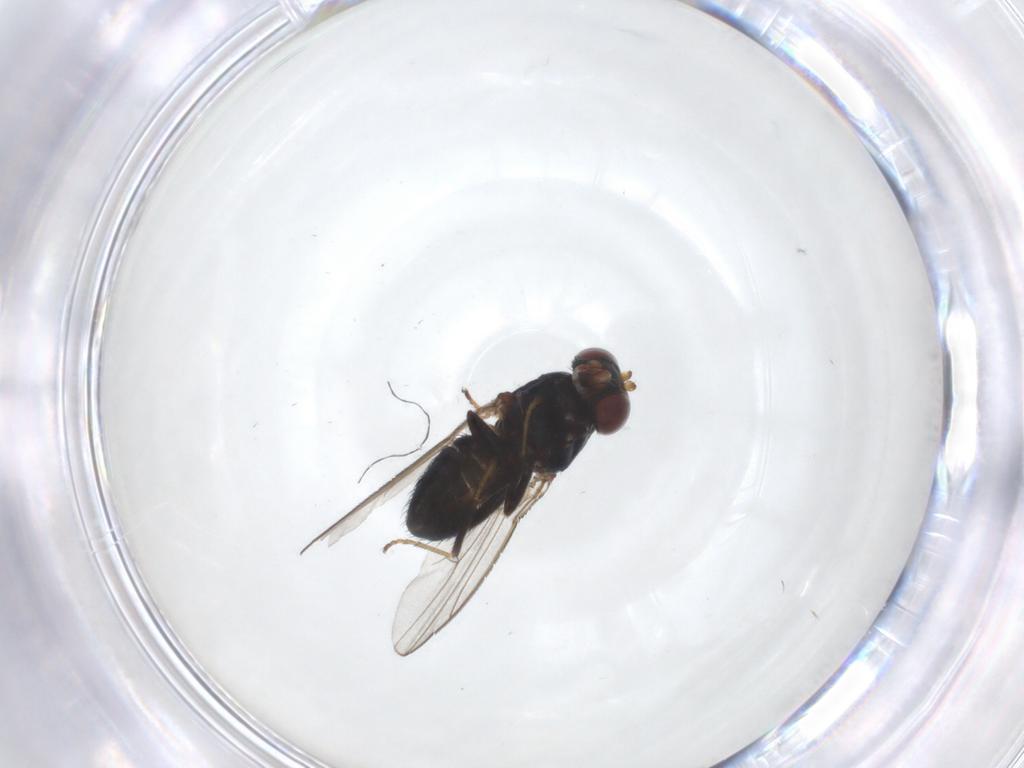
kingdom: Animalia
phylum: Arthropoda
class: Insecta
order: Diptera
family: Ephydridae
